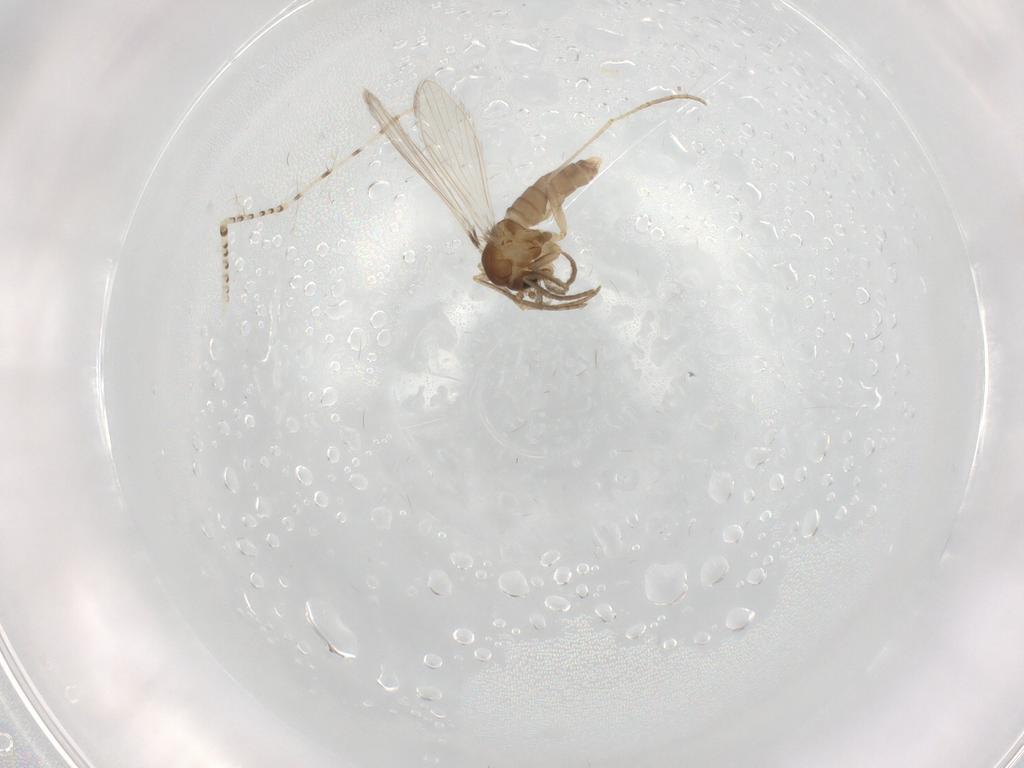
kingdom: Animalia
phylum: Arthropoda
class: Insecta
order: Diptera
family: Chaoboridae
